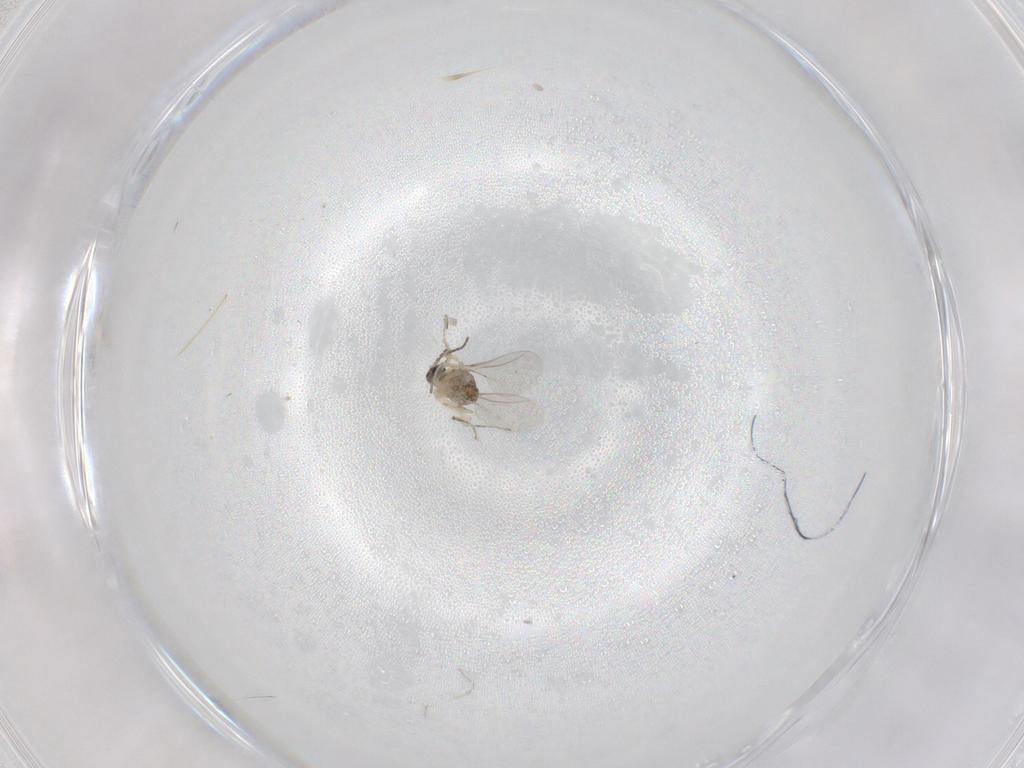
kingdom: Animalia
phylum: Arthropoda
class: Insecta
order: Diptera
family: Cecidomyiidae
